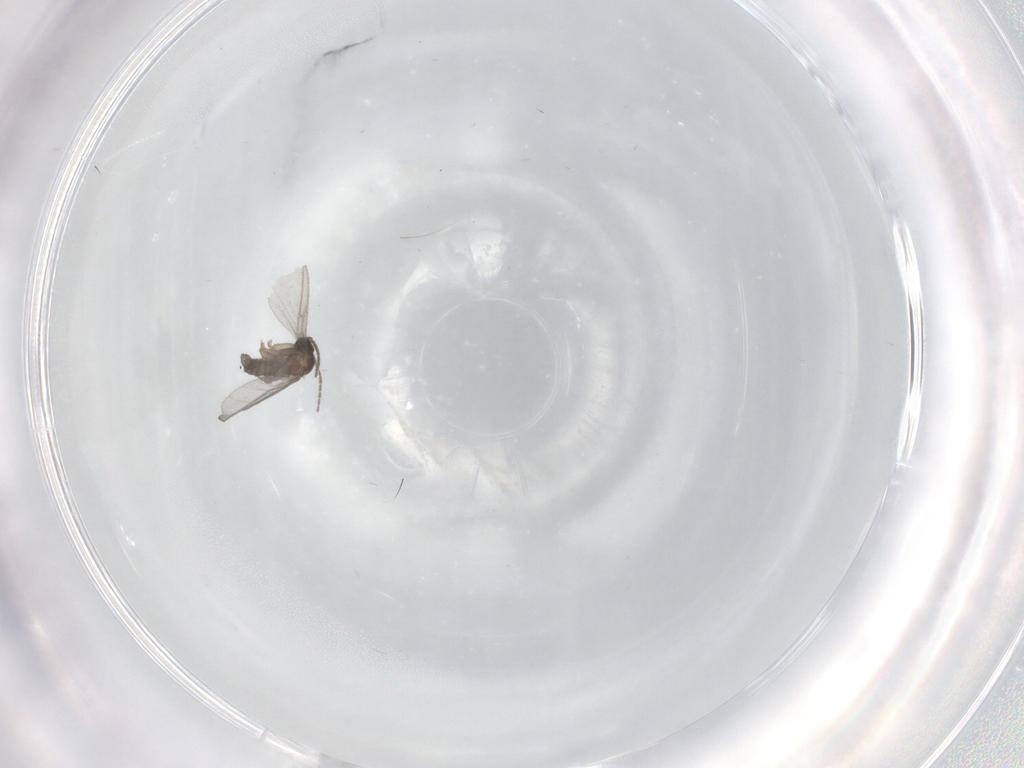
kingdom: Animalia
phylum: Arthropoda
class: Insecta
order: Diptera
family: Sciaridae
